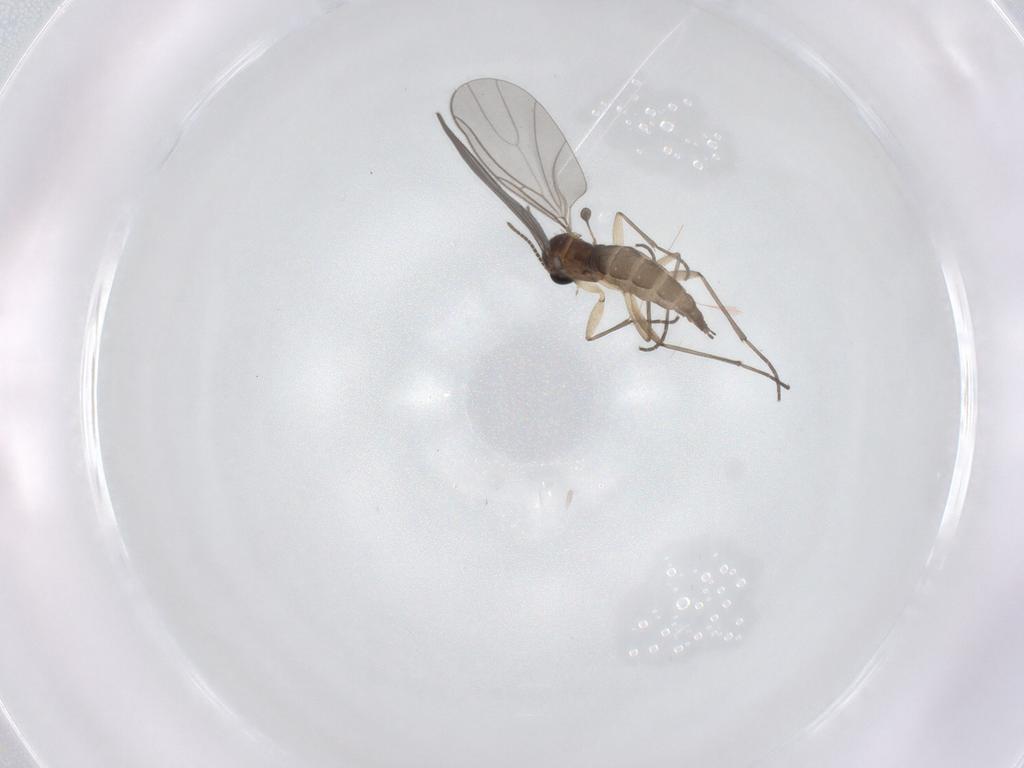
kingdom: Animalia
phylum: Arthropoda
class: Insecta
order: Diptera
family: Sciaridae
